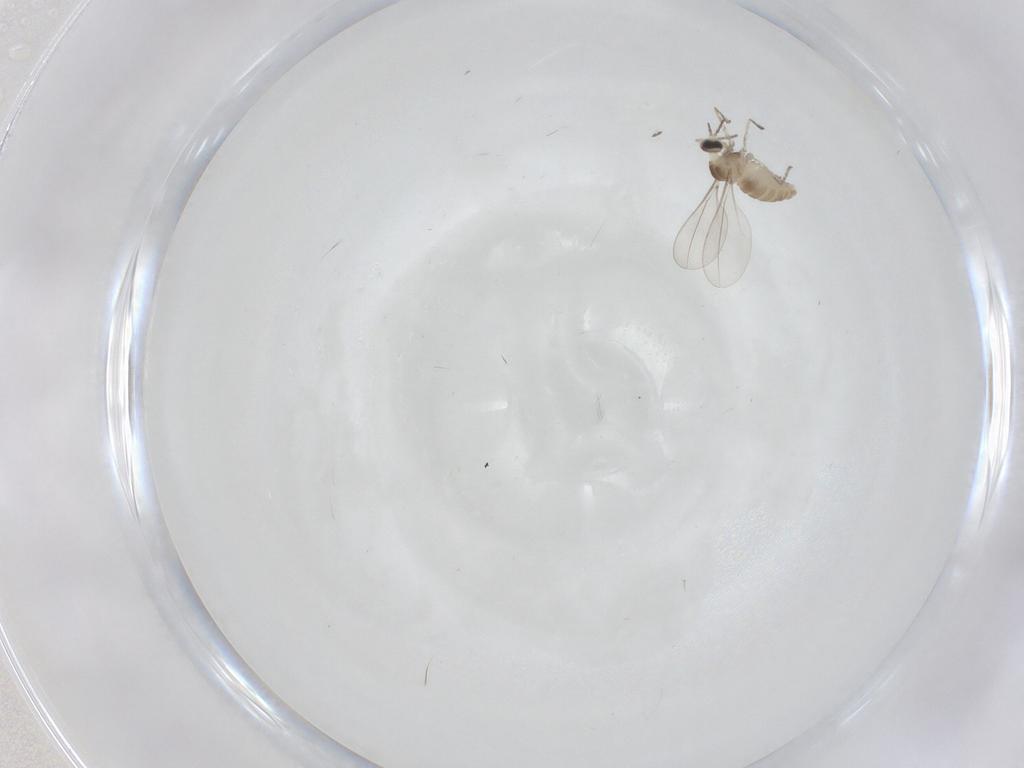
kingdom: Animalia
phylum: Arthropoda
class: Insecta
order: Diptera
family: Cecidomyiidae
